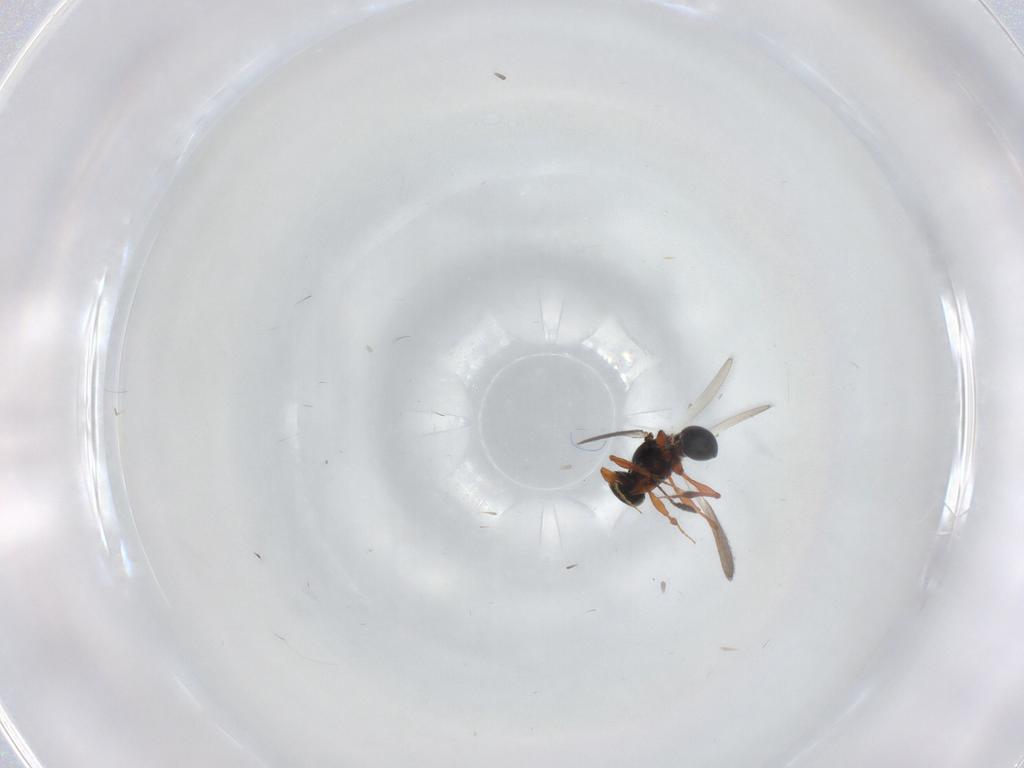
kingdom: Animalia
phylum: Arthropoda
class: Insecta
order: Hymenoptera
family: Platygastridae
